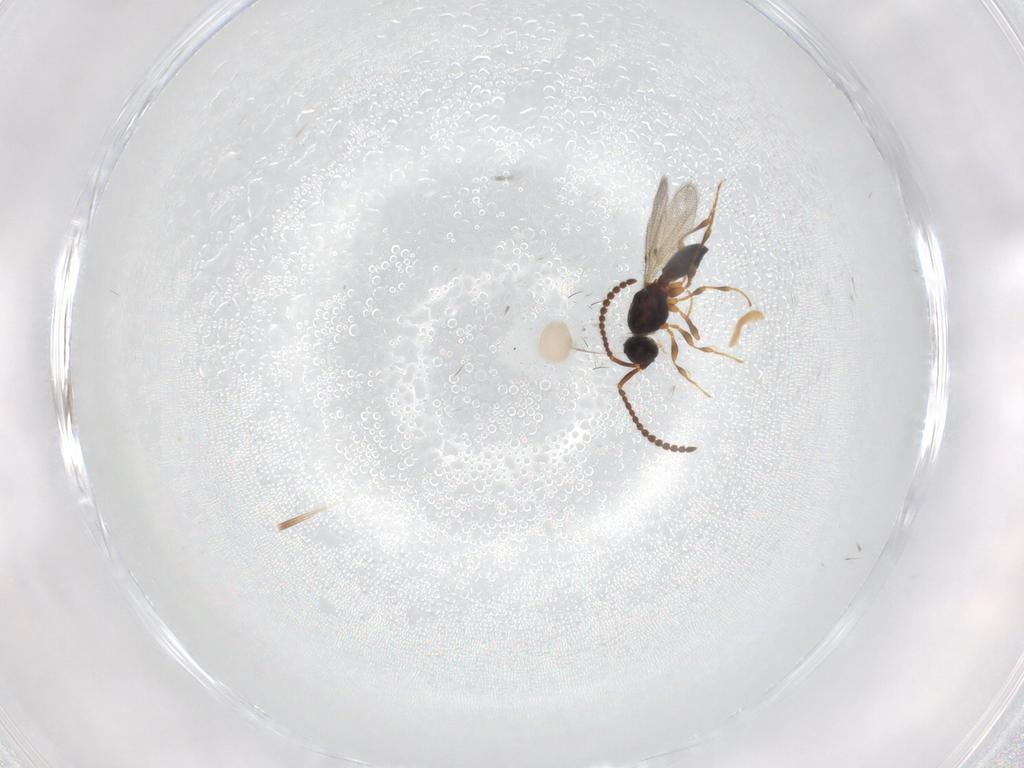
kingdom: Animalia
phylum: Arthropoda
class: Insecta
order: Hymenoptera
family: Diapriidae
